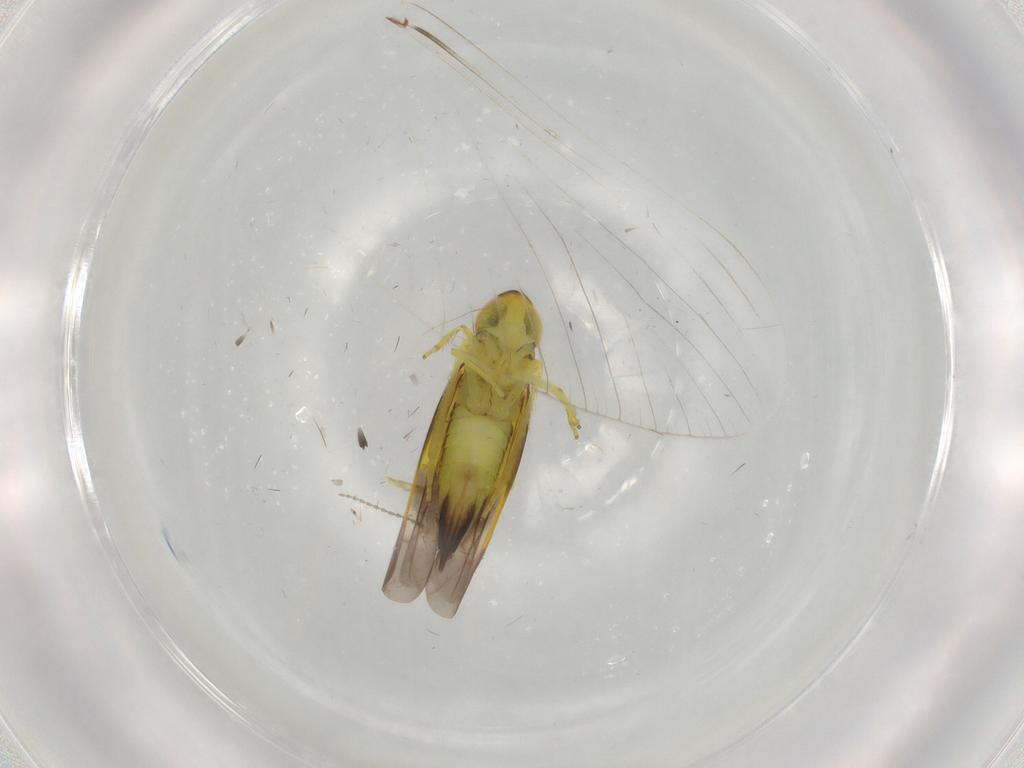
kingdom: Animalia
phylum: Arthropoda
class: Insecta
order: Hemiptera
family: Cicadellidae
